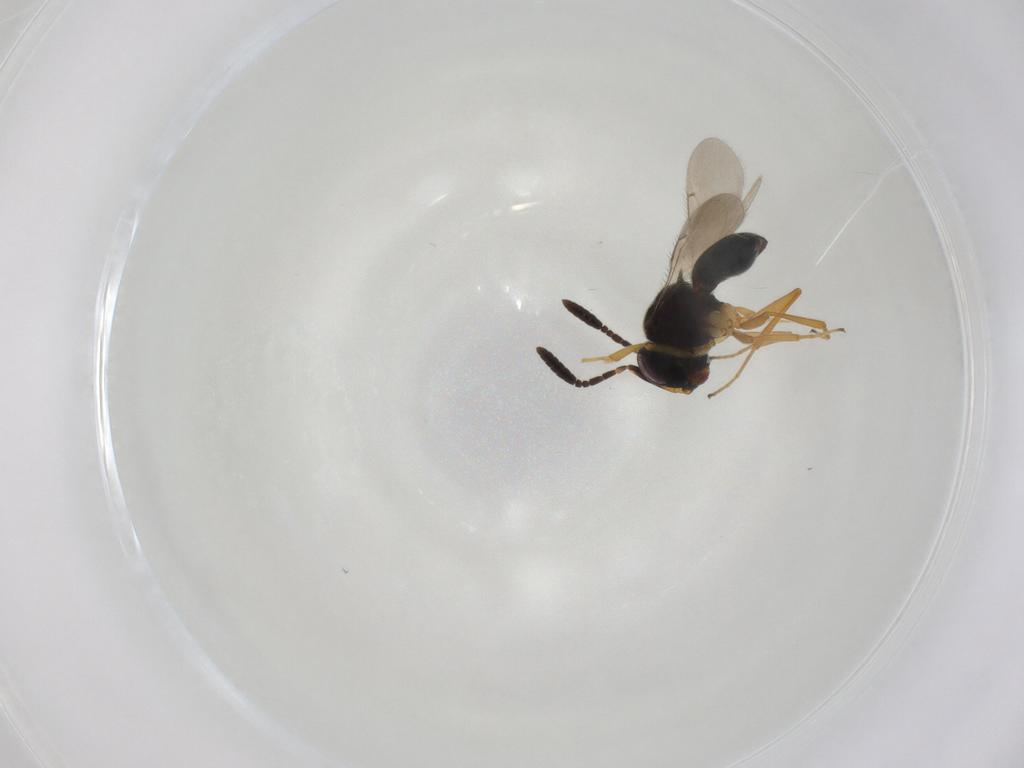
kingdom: Animalia
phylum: Arthropoda
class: Insecta
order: Hymenoptera
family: Scelionidae
